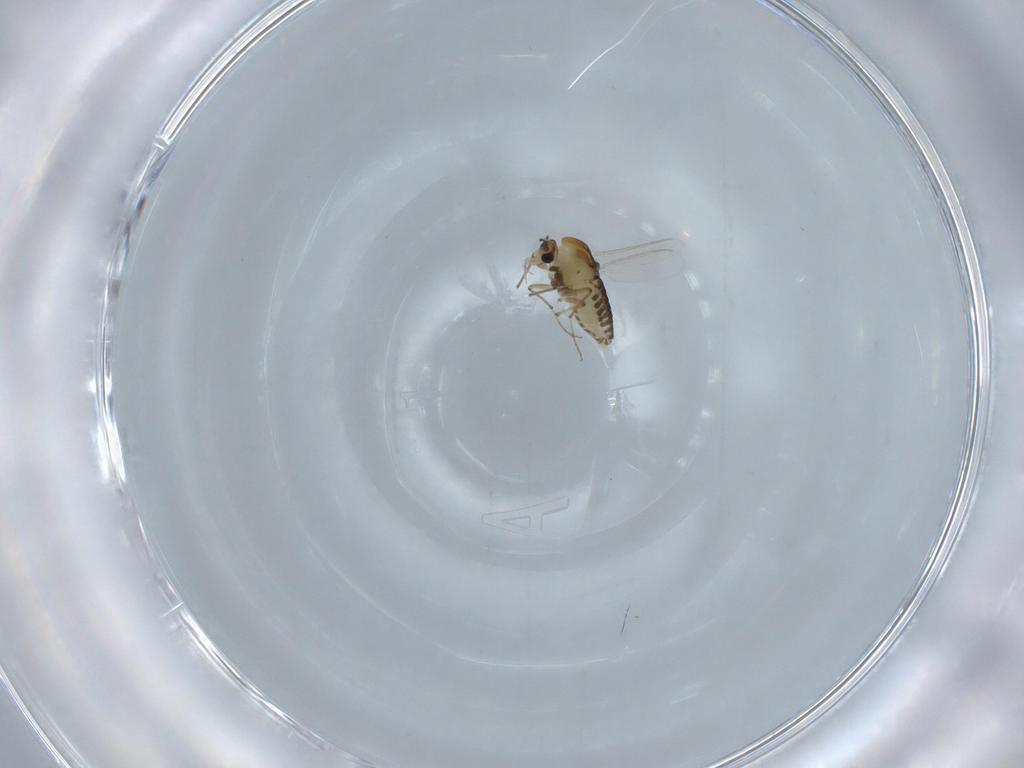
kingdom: Animalia
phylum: Arthropoda
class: Insecta
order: Diptera
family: Chironomidae
